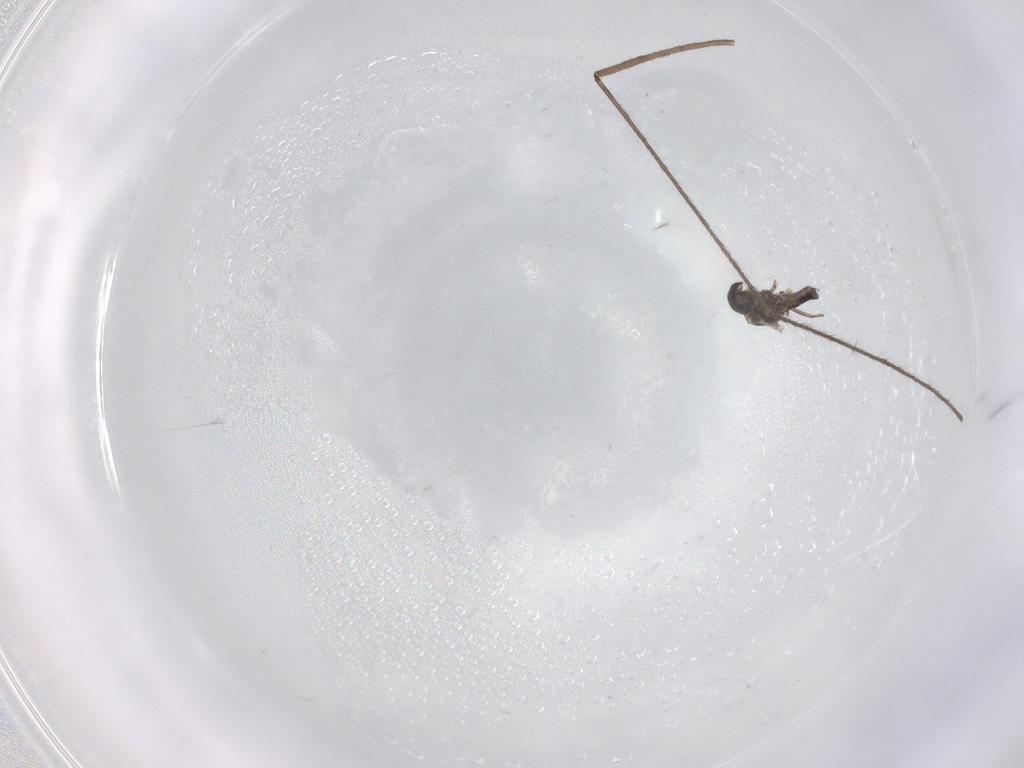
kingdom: Animalia
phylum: Arthropoda
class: Insecta
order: Diptera
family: Ceratopogonidae
